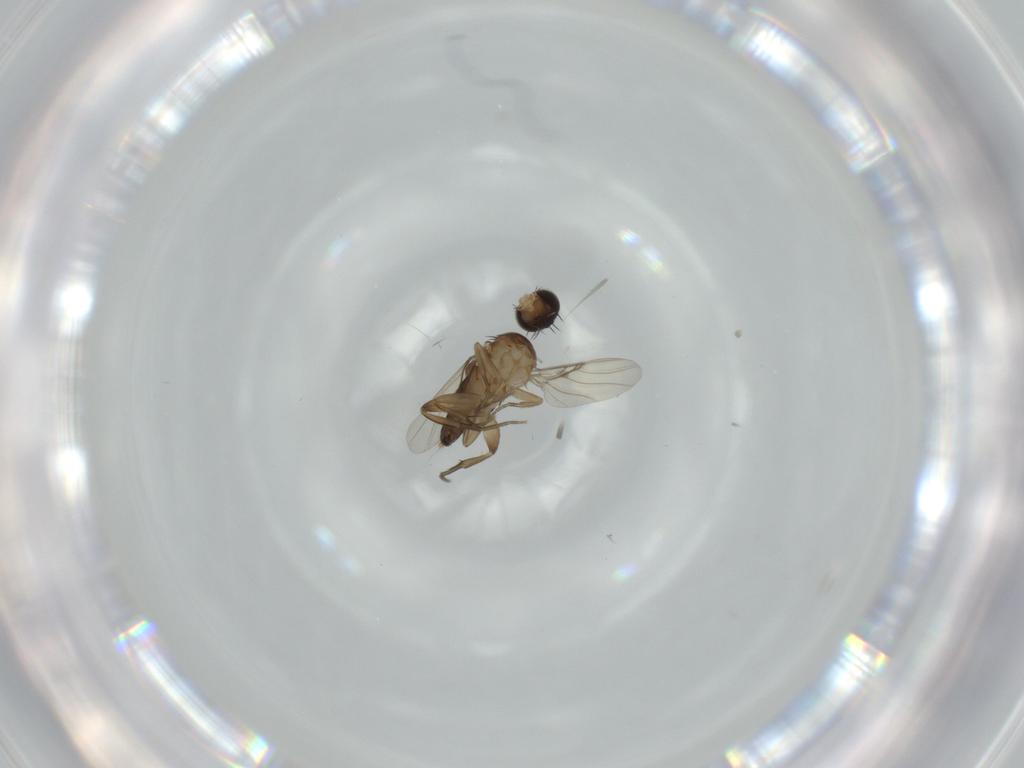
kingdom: Animalia
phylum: Arthropoda
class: Insecta
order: Diptera
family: Phoridae
